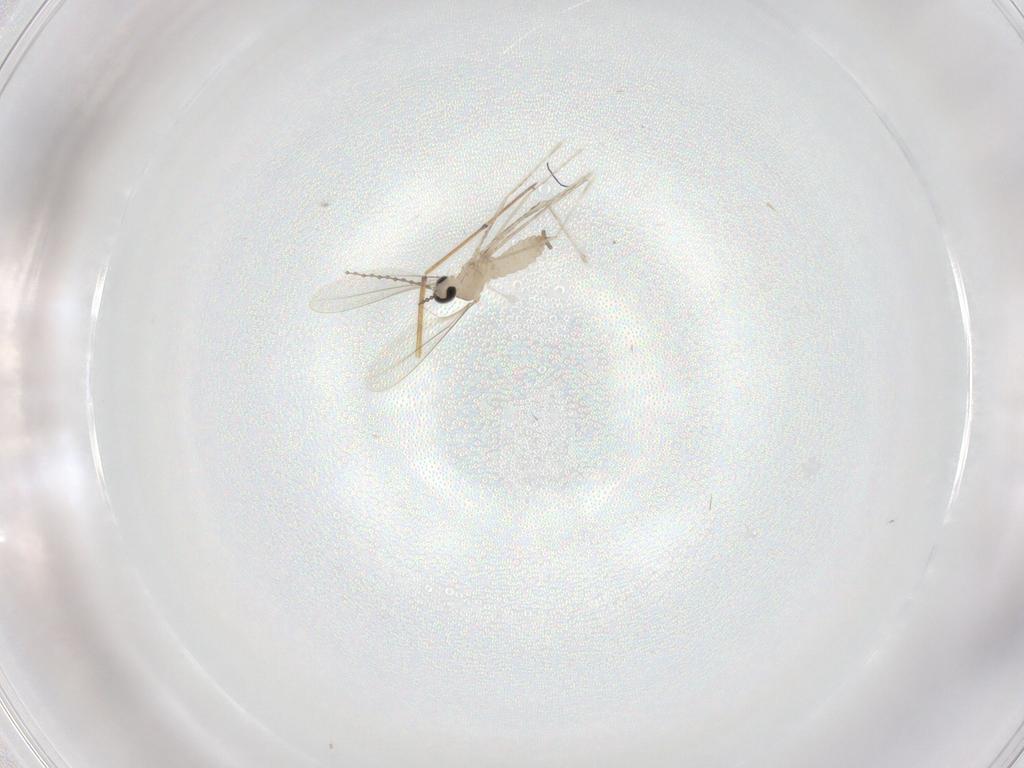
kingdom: Animalia
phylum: Arthropoda
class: Insecta
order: Diptera
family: Cecidomyiidae
